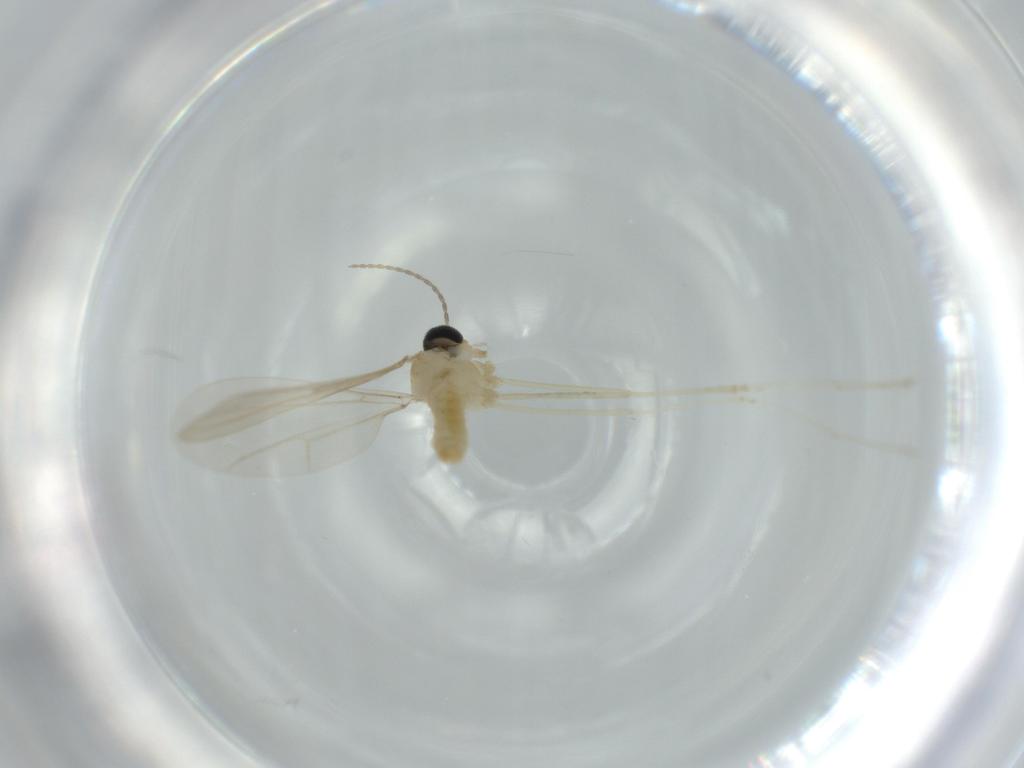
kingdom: Animalia
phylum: Arthropoda
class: Insecta
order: Diptera
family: Cecidomyiidae
